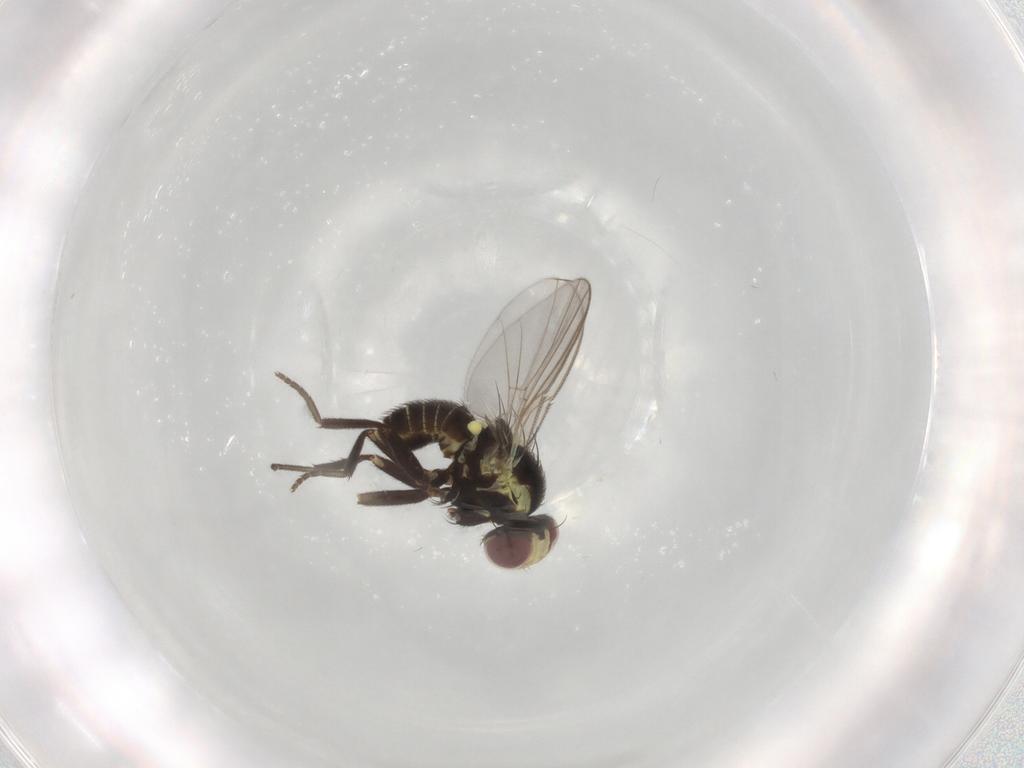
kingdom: Animalia
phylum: Arthropoda
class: Insecta
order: Diptera
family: Agromyzidae
